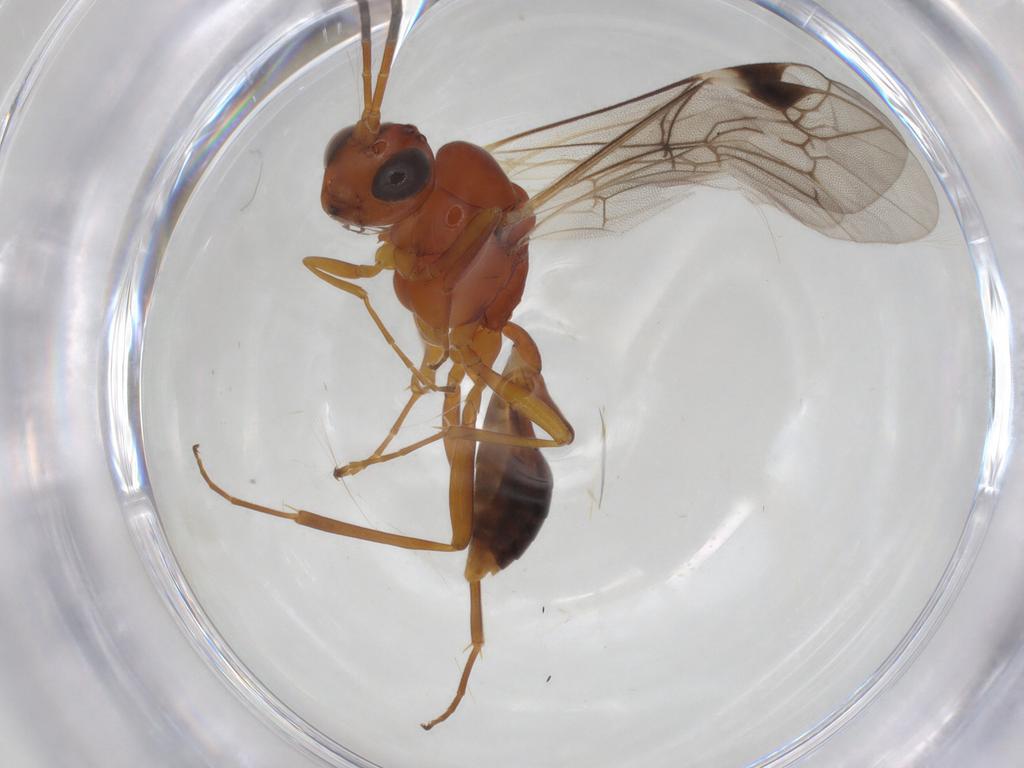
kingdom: Animalia
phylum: Arthropoda
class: Insecta
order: Hymenoptera
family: Ichneumonidae
